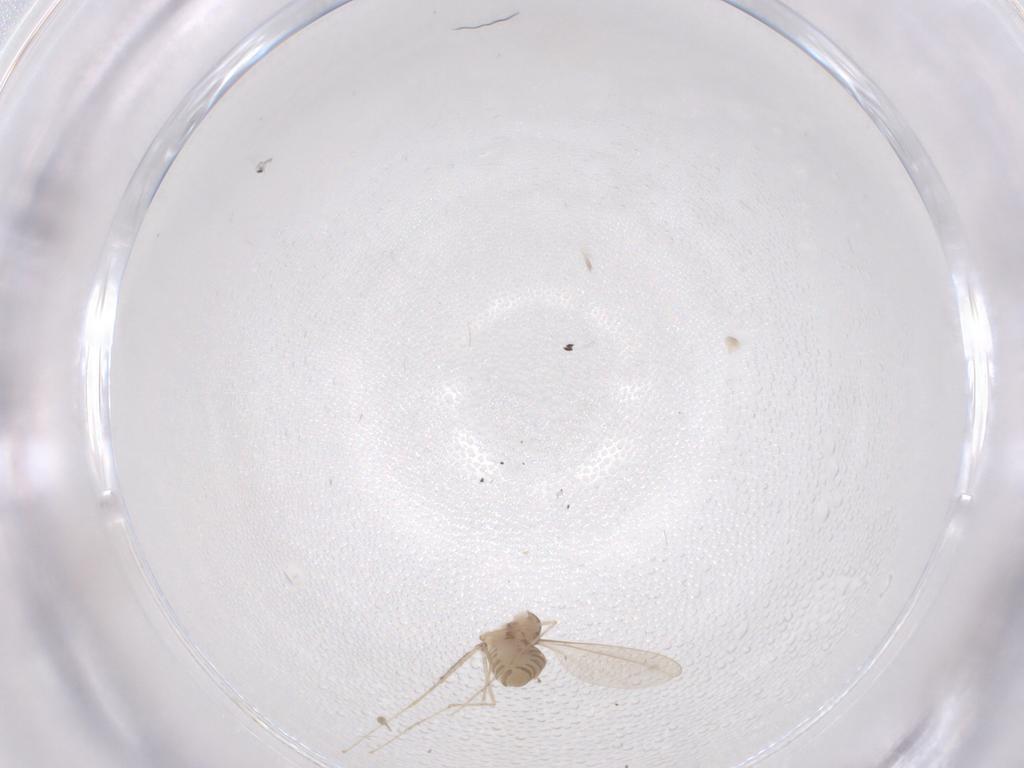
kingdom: Animalia
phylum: Arthropoda
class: Insecta
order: Diptera
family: Cecidomyiidae
